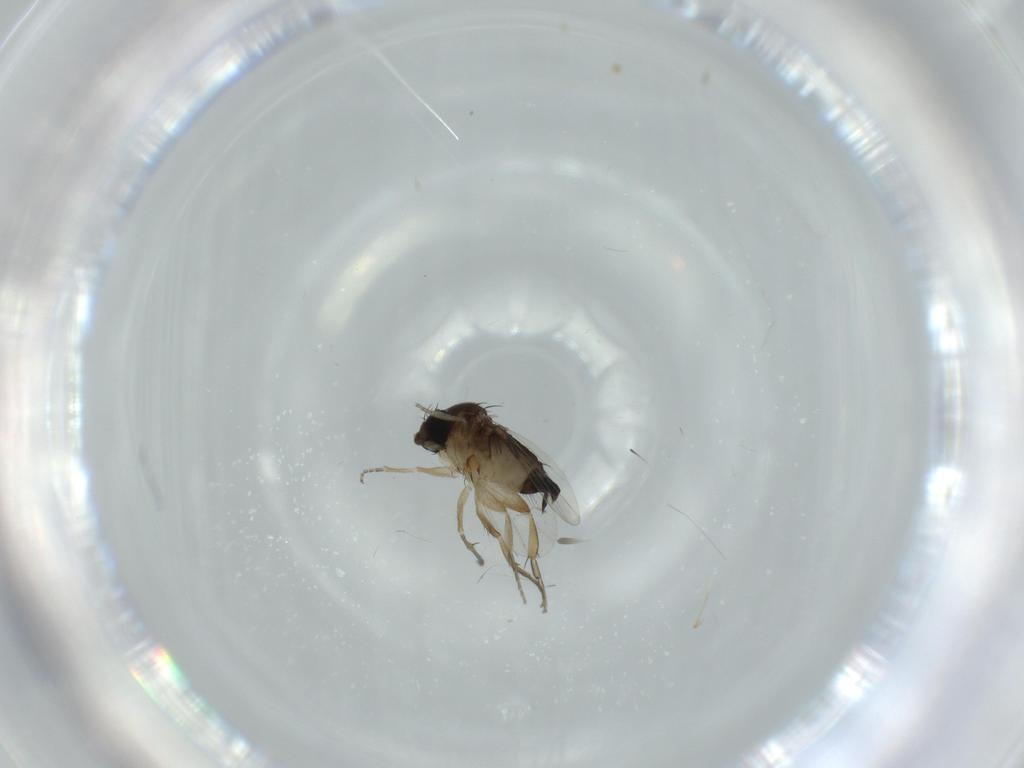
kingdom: Animalia
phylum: Arthropoda
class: Insecta
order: Diptera
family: Phoridae
